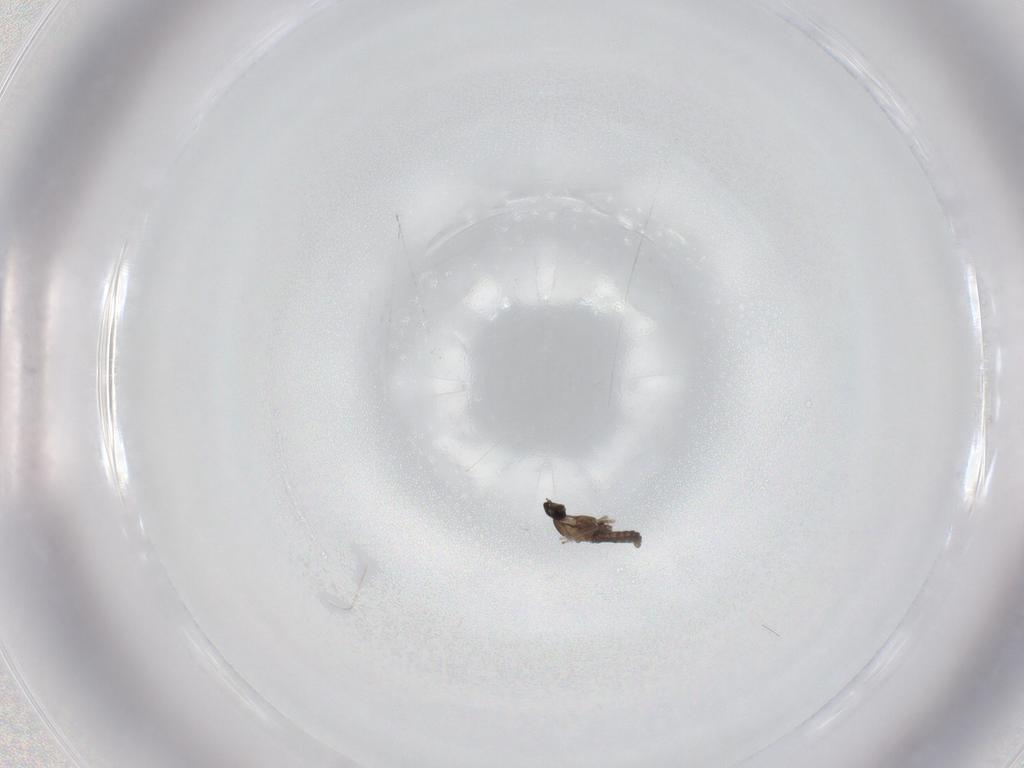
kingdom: Animalia
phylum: Arthropoda
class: Insecta
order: Diptera
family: Cecidomyiidae
